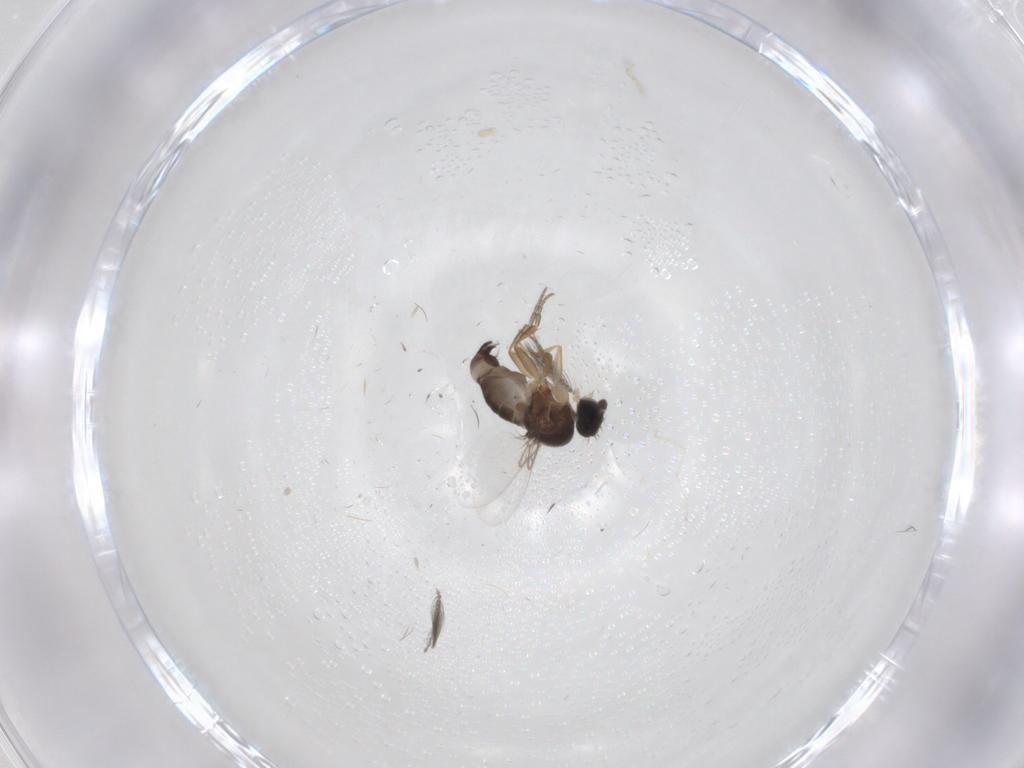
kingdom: Animalia
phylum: Arthropoda
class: Insecta
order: Diptera
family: Phoridae
